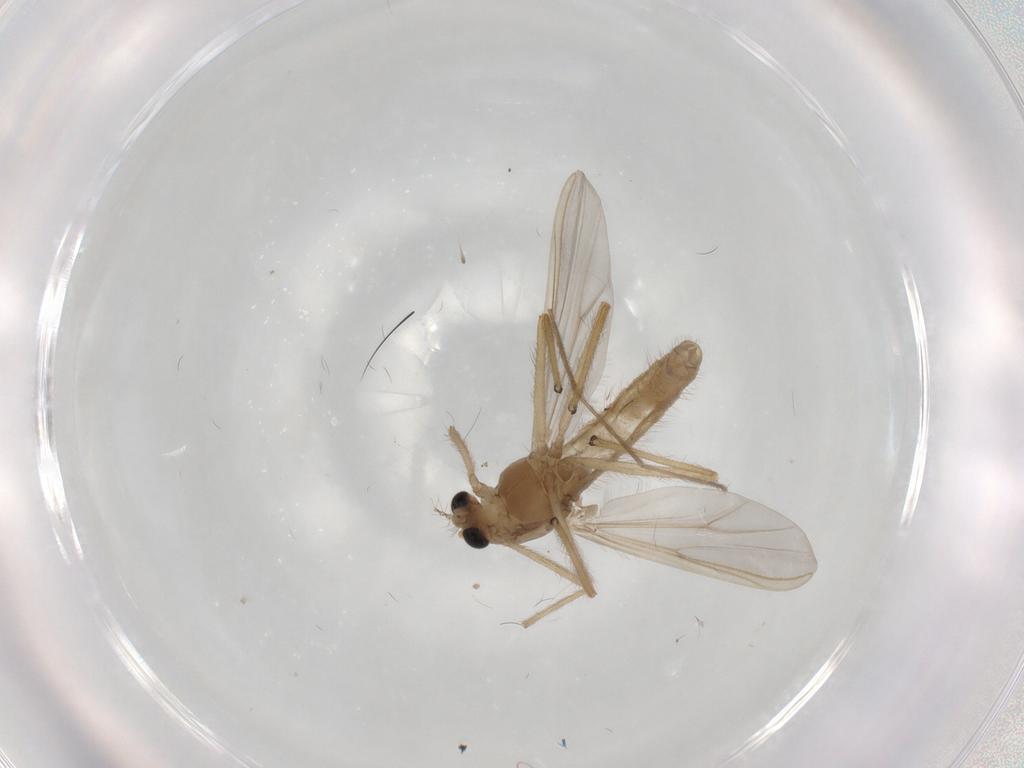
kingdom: Animalia
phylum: Arthropoda
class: Insecta
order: Diptera
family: Chironomidae
